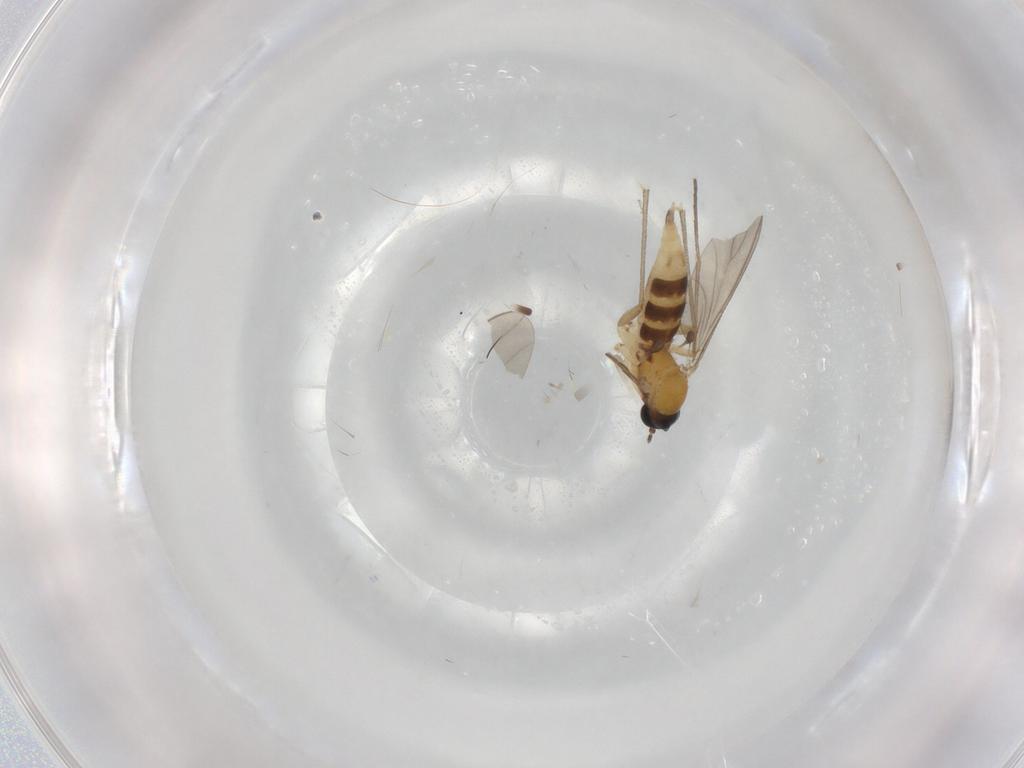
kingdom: Animalia
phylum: Arthropoda
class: Insecta
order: Diptera
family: Sciaridae
